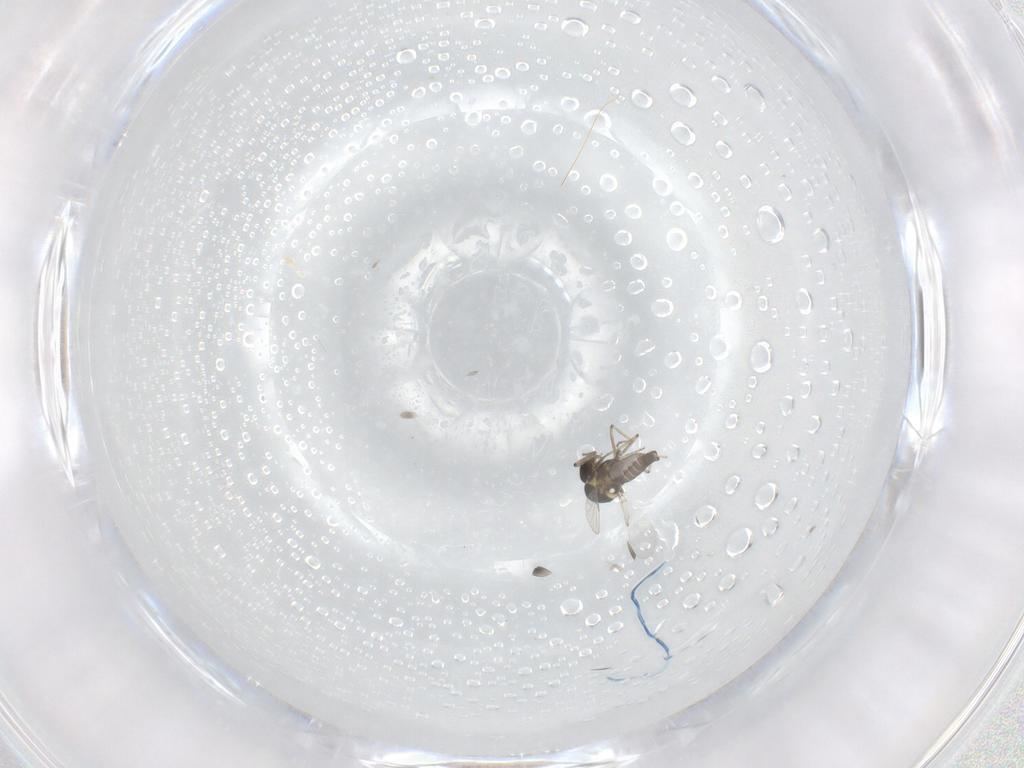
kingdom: Animalia
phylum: Arthropoda
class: Insecta
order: Diptera
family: Ceratopogonidae
